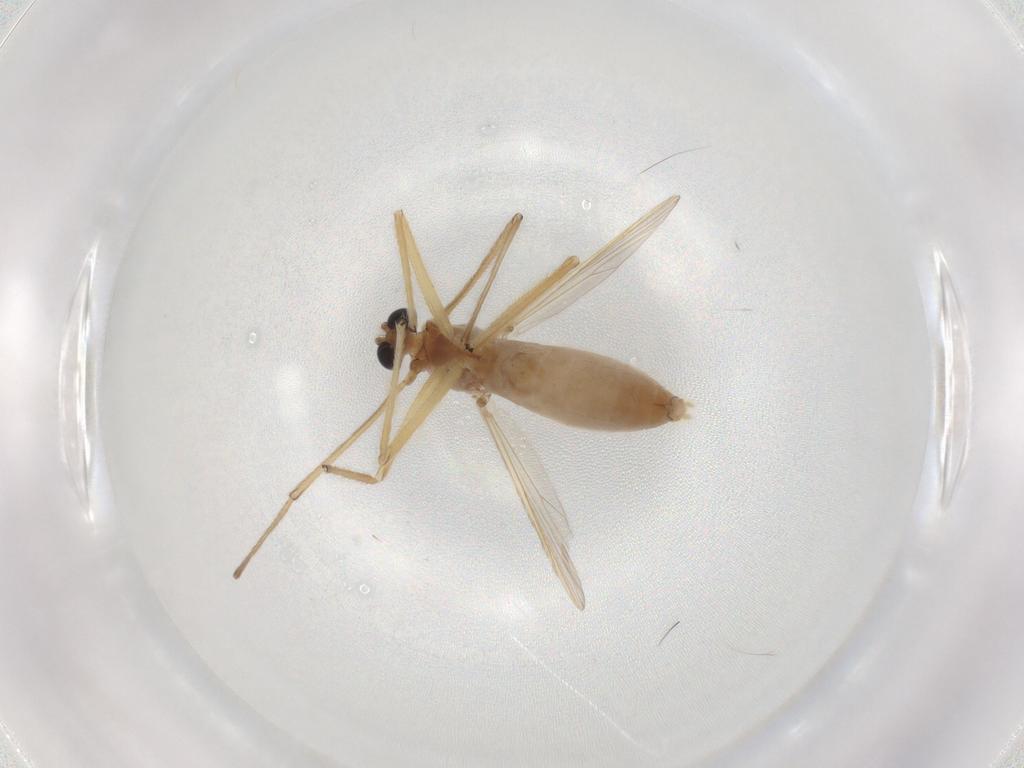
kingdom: Animalia
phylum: Arthropoda
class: Insecta
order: Diptera
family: Chironomidae
